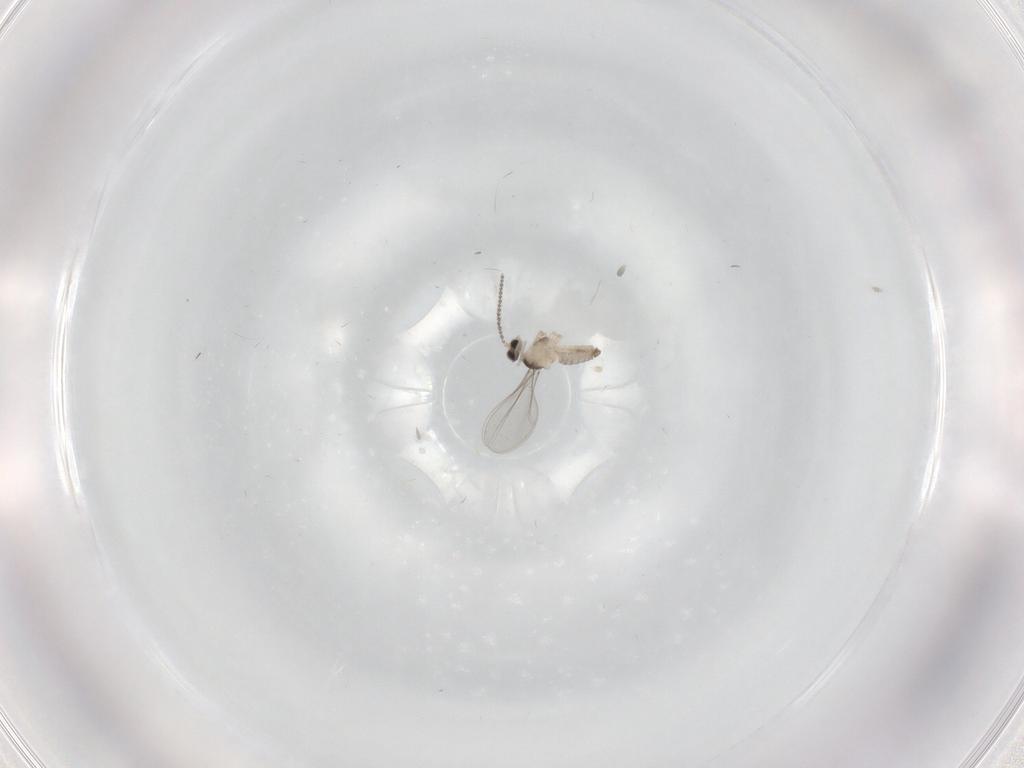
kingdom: Animalia
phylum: Arthropoda
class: Insecta
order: Diptera
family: Cecidomyiidae
